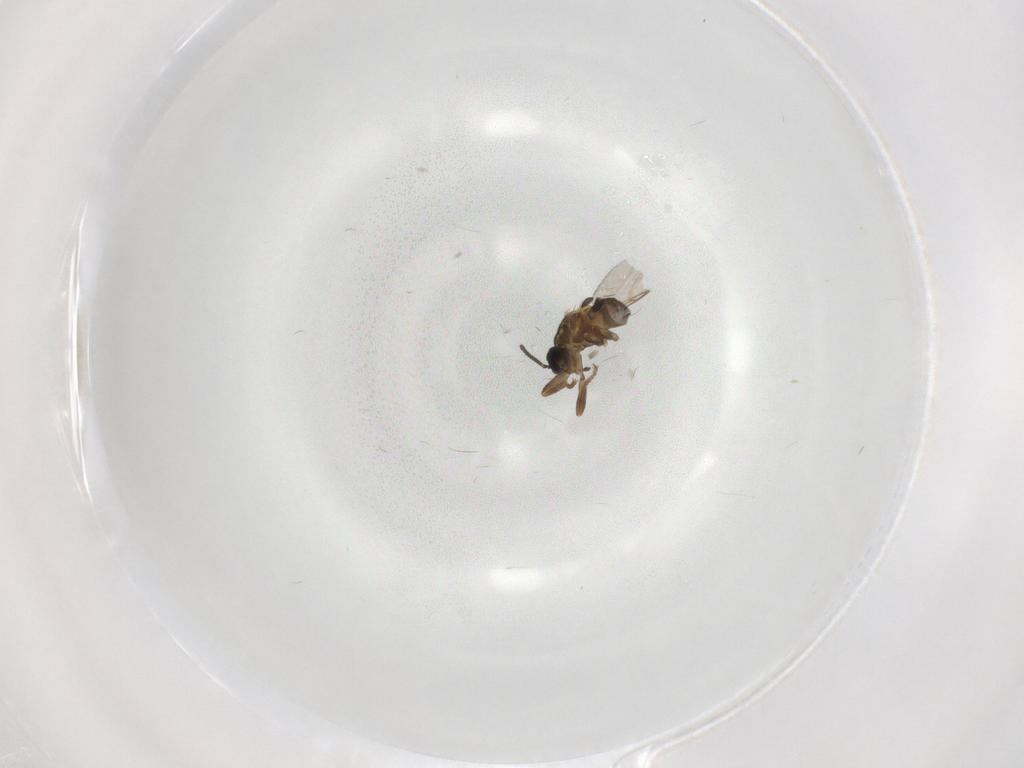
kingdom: Animalia
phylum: Arthropoda
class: Insecta
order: Diptera
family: Scatopsidae
